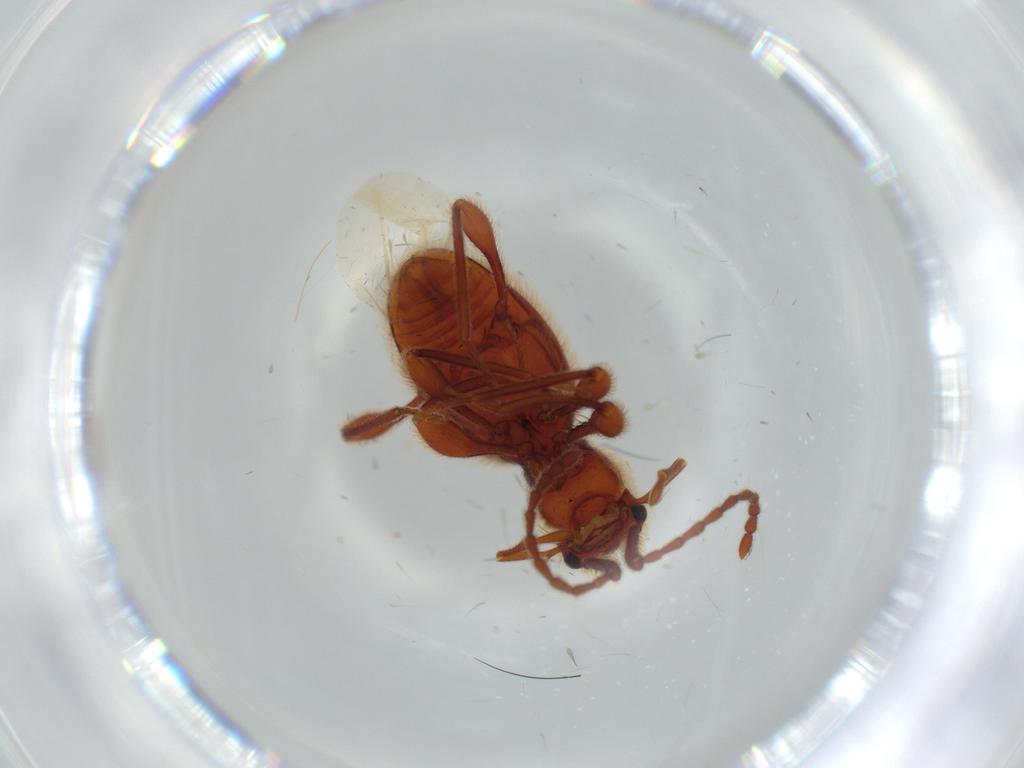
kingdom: Animalia
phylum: Arthropoda
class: Insecta
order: Coleoptera
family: Staphylinidae
